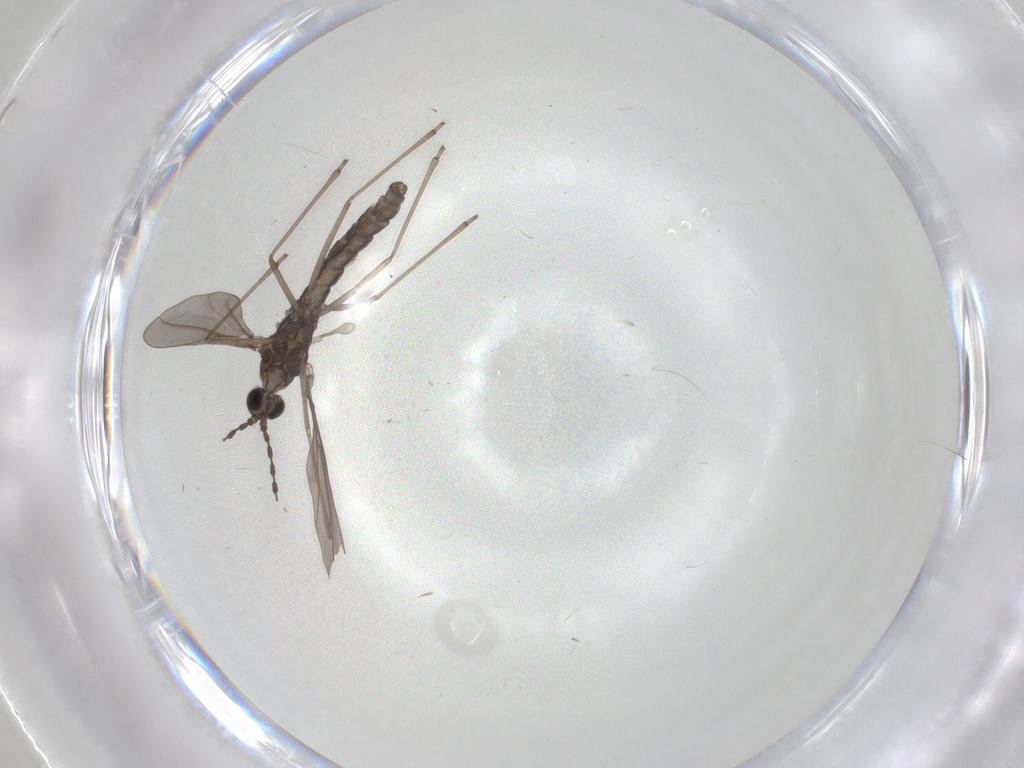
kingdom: Animalia
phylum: Arthropoda
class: Insecta
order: Diptera
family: Cecidomyiidae
